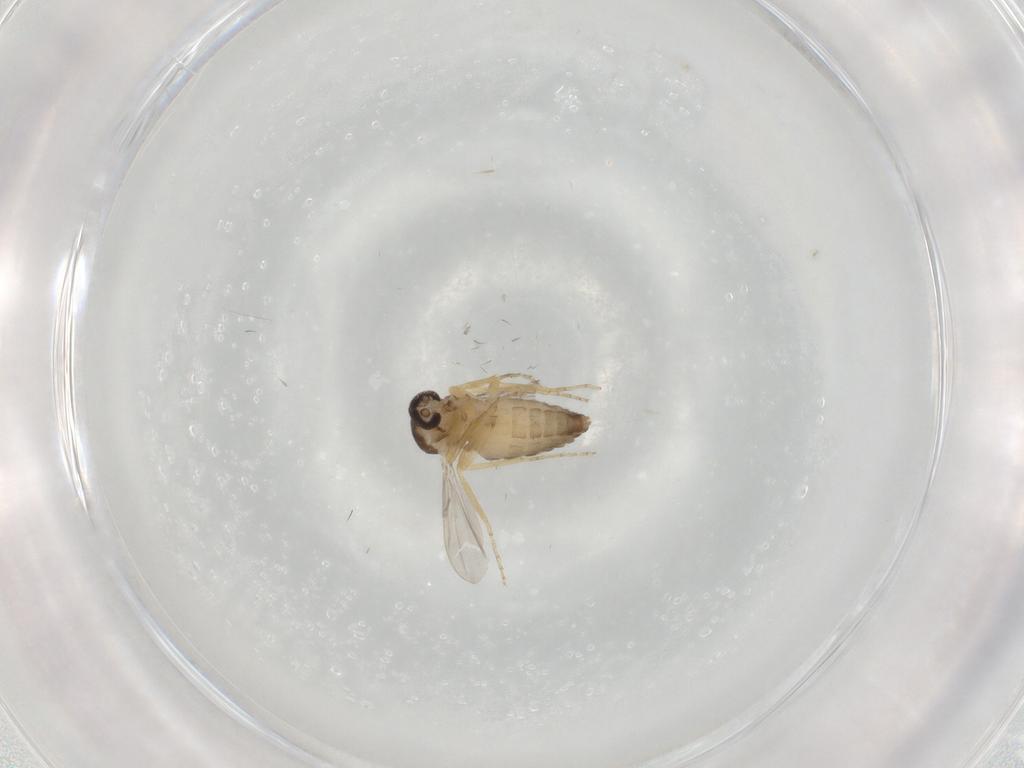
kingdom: Animalia
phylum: Arthropoda
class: Insecta
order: Diptera
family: Ceratopogonidae
